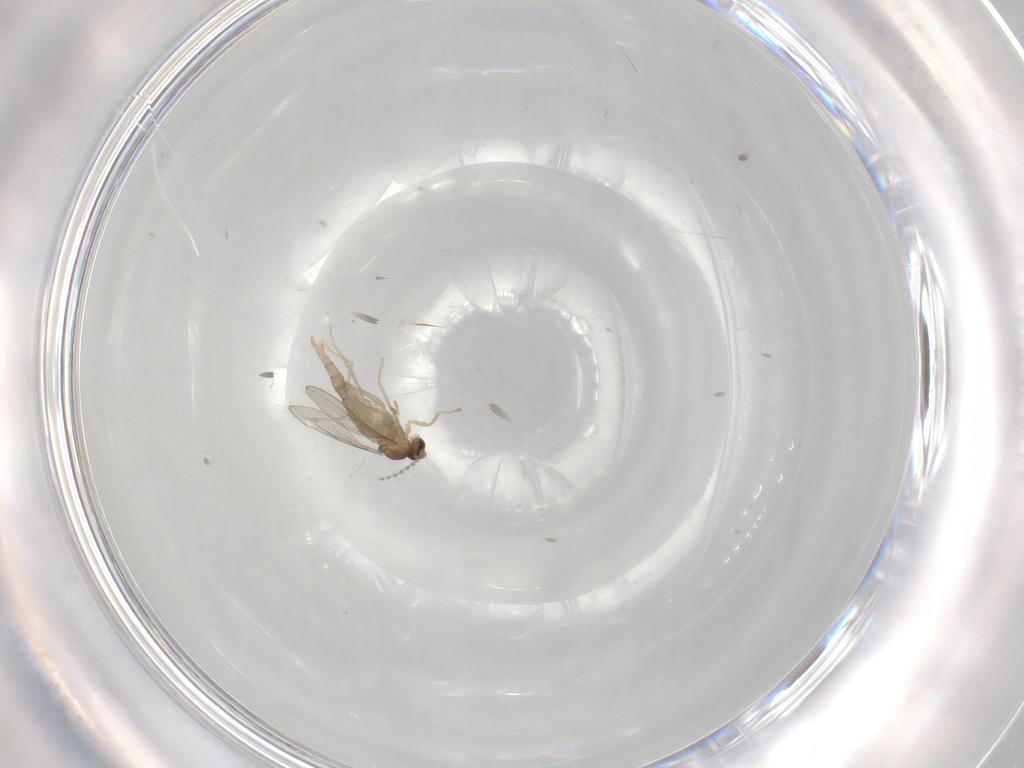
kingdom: Animalia
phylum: Arthropoda
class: Insecta
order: Diptera
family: Cecidomyiidae
